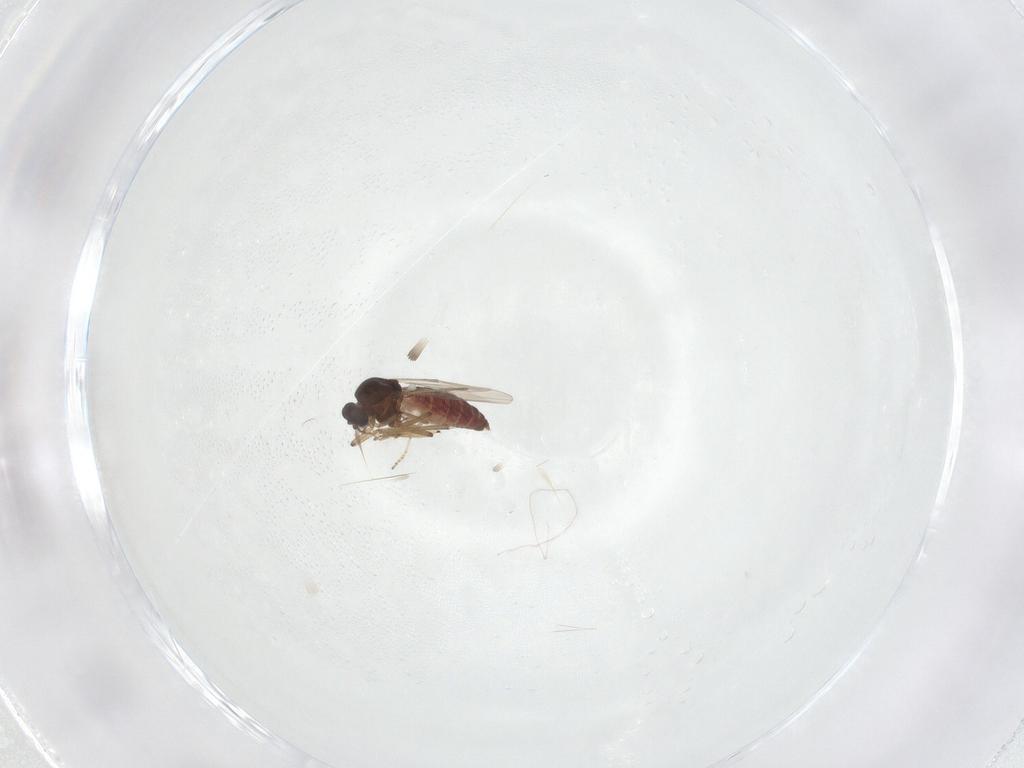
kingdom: Animalia
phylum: Arthropoda
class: Insecta
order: Diptera
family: Ceratopogonidae
